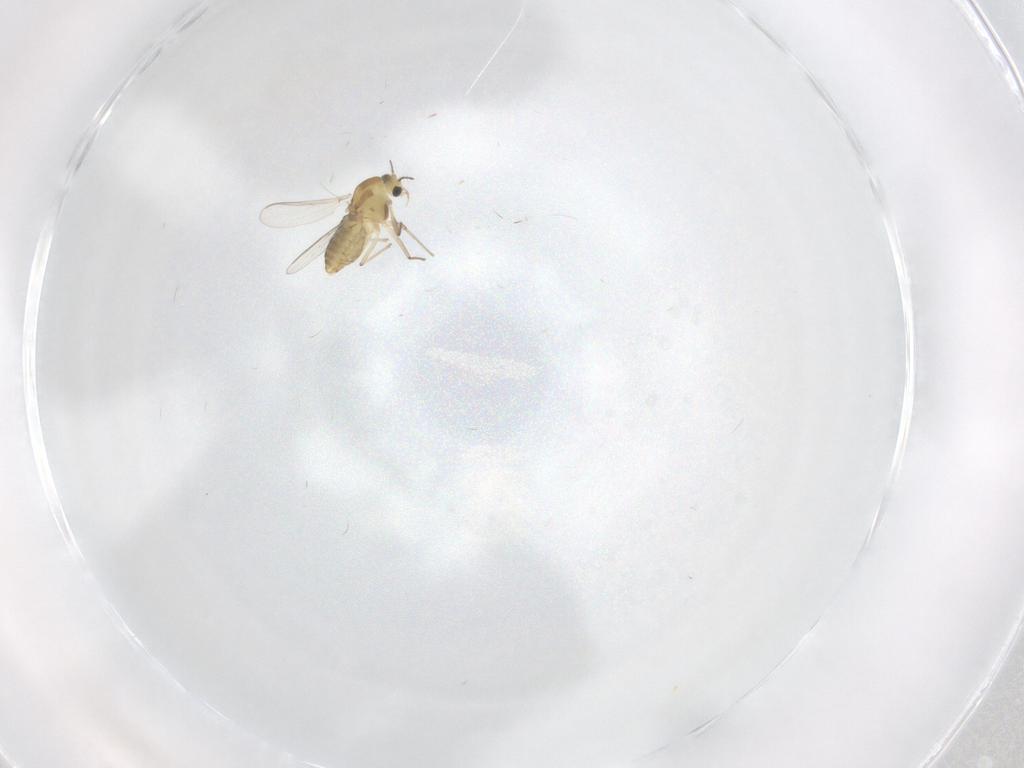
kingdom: Animalia
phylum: Arthropoda
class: Insecta
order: Diptera
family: Chironomidae
